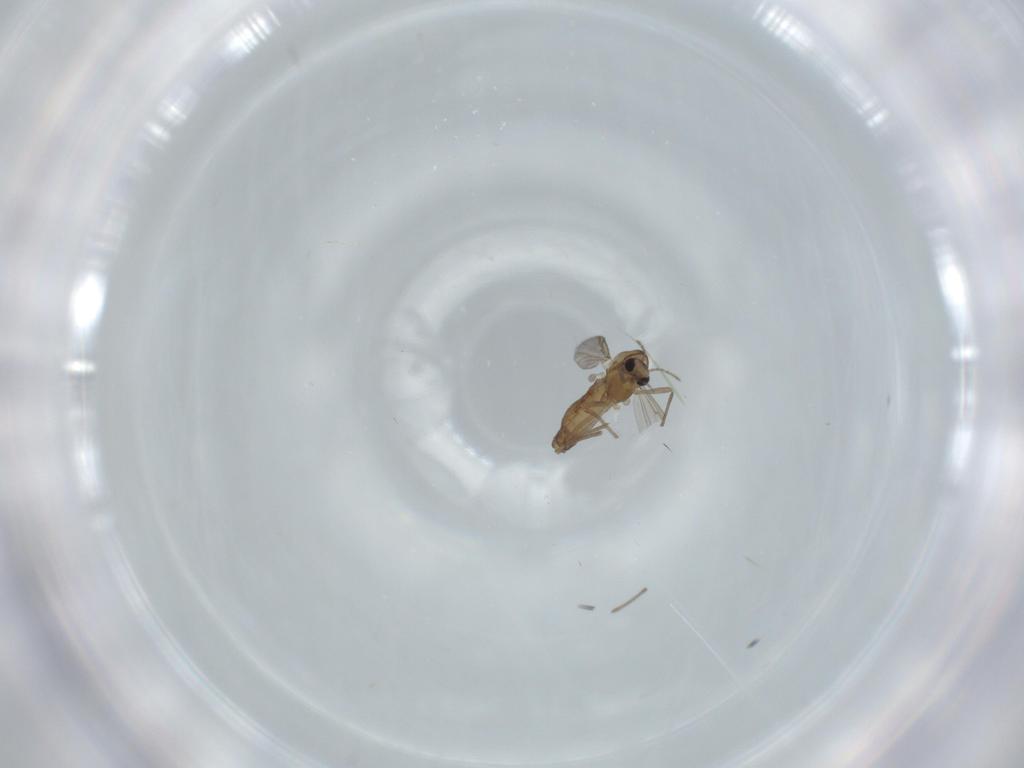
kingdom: Animalia
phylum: Arthropoda
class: Insecta
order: Diptera
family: Chironomidae
